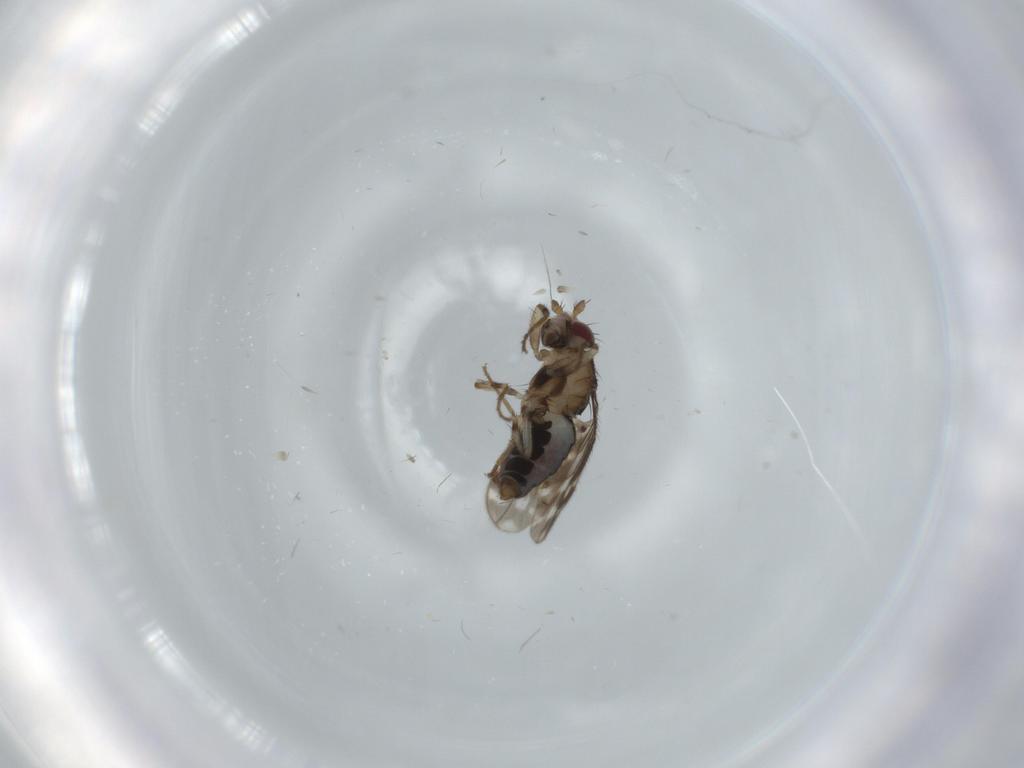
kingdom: Animalia
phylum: Arthropoda
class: Insecta
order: Diptera
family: Sphaeroceridae
